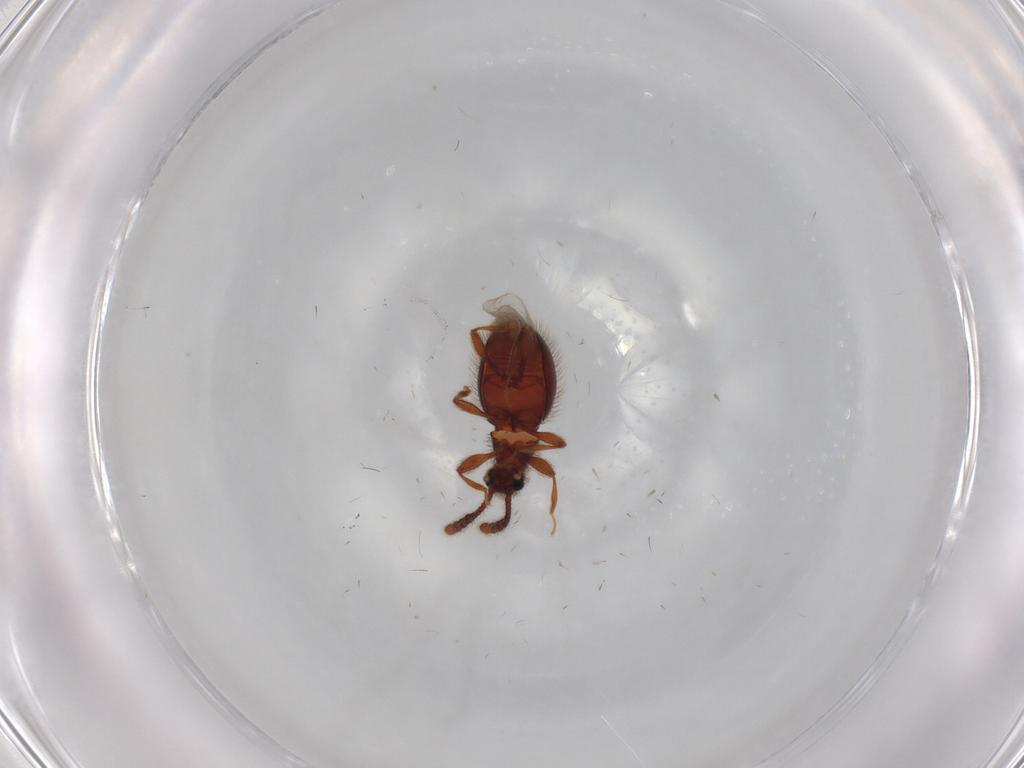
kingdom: Animalia
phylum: Arthropoda
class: Insecta
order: Coleoptera
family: Staphylinidae
